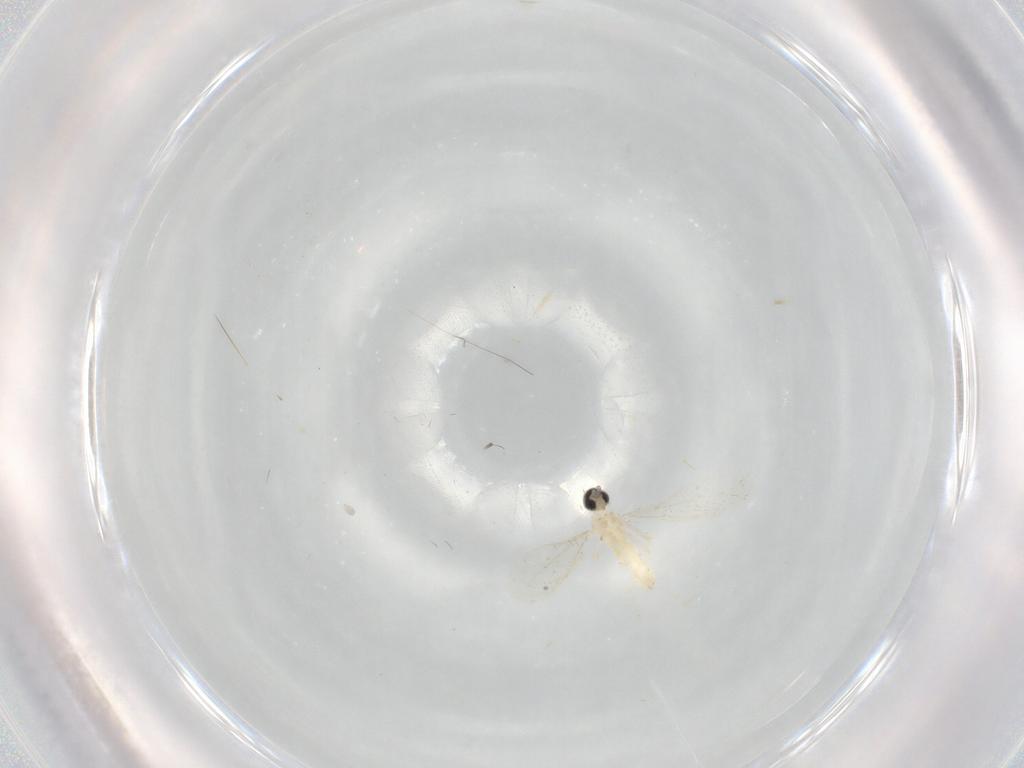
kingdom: Animalia
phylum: Arthropoda
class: Insecta
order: Diptera
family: Cecidomyiidae
